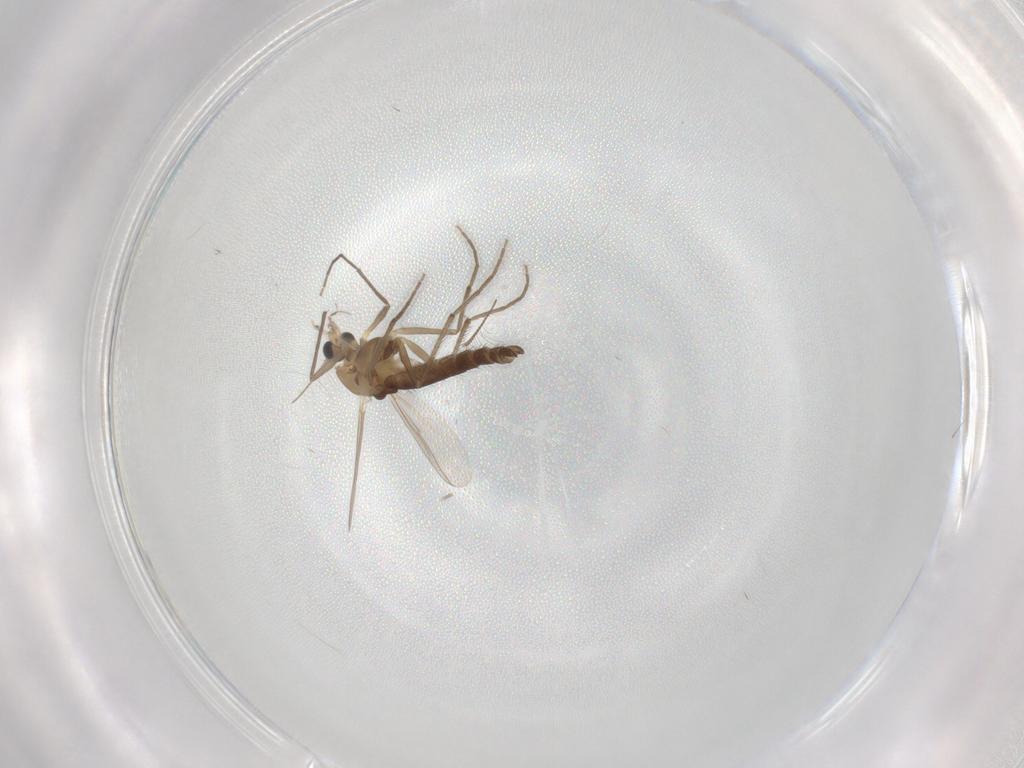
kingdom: Animalia
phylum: Arthropoda
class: Insecta
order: Diptera
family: Chironomidae
